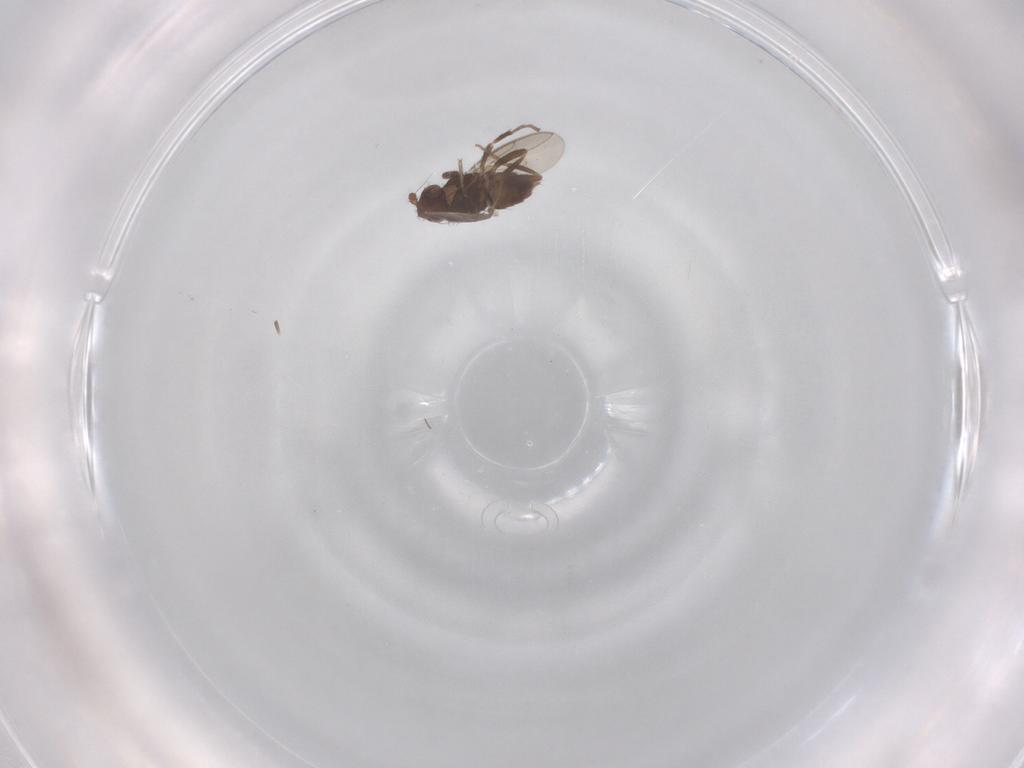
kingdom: Animalia
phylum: Arthropoda
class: Insecta
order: Diptera
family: Sphaeroceridae
